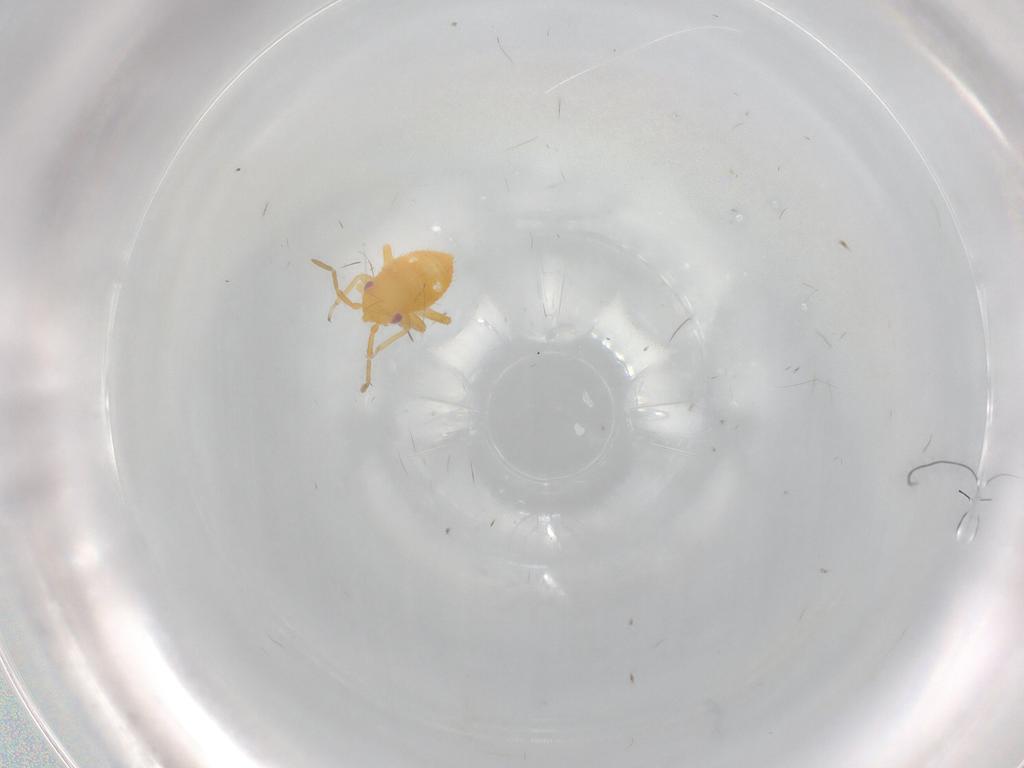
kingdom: Animalia
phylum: Arthropoda
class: Insecta
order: Hemiptera
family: Miridae
